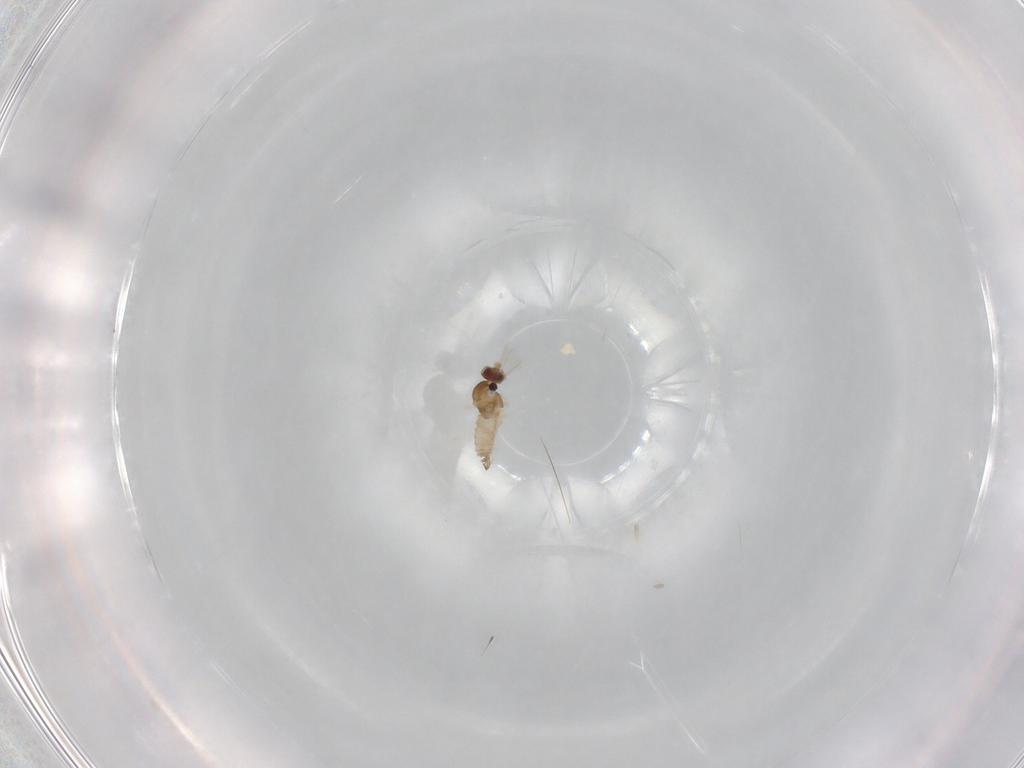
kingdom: Animalia
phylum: Arthropoda
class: Insecta
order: Diptera
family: Cecidomyiidae
